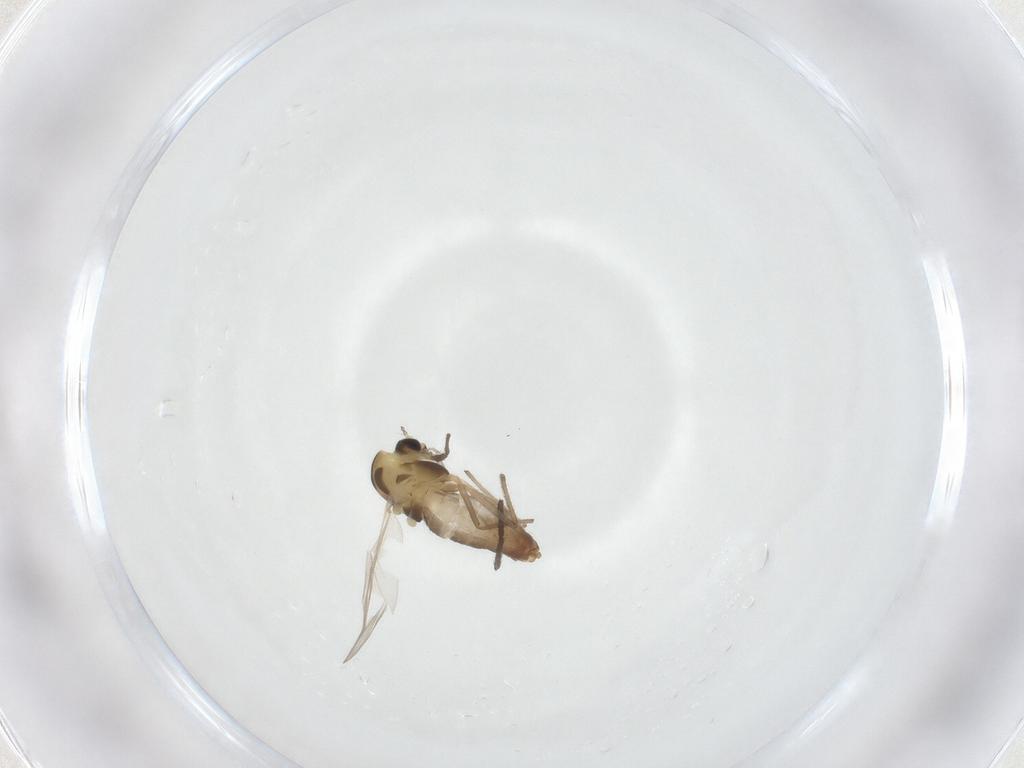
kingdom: Animalia
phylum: Arthropoda
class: Insecta
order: Diptera
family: Chironomidae
